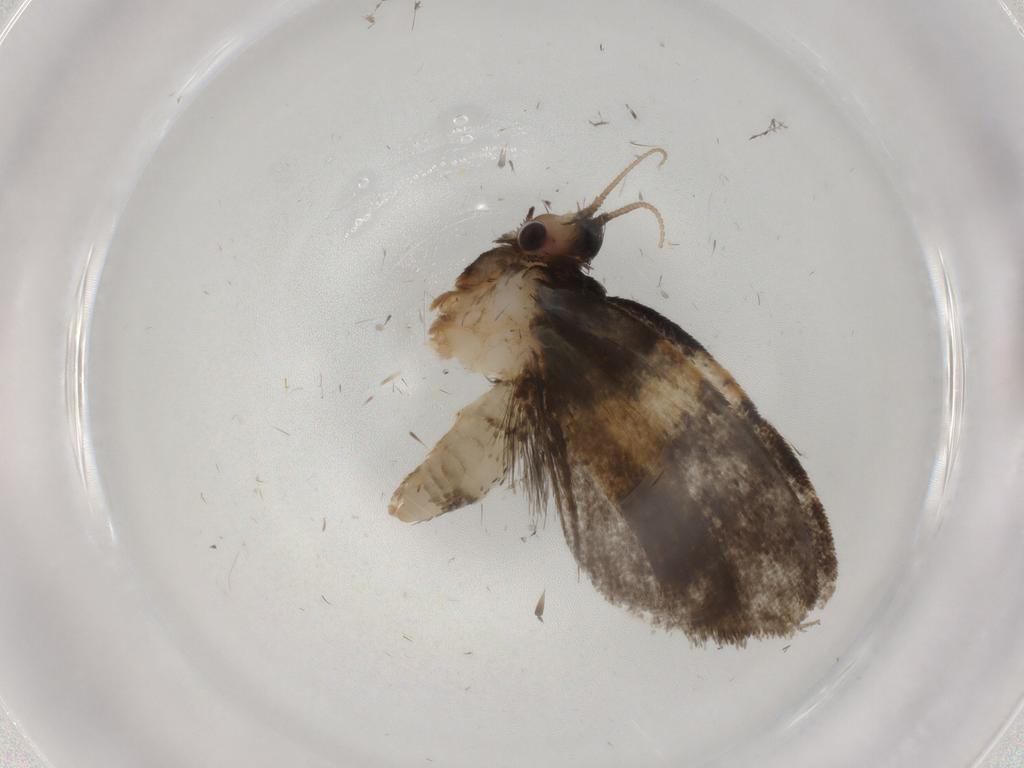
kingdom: Animalia
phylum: Arthropoda
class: Insecta
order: Lepidoptera
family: Psychidae
